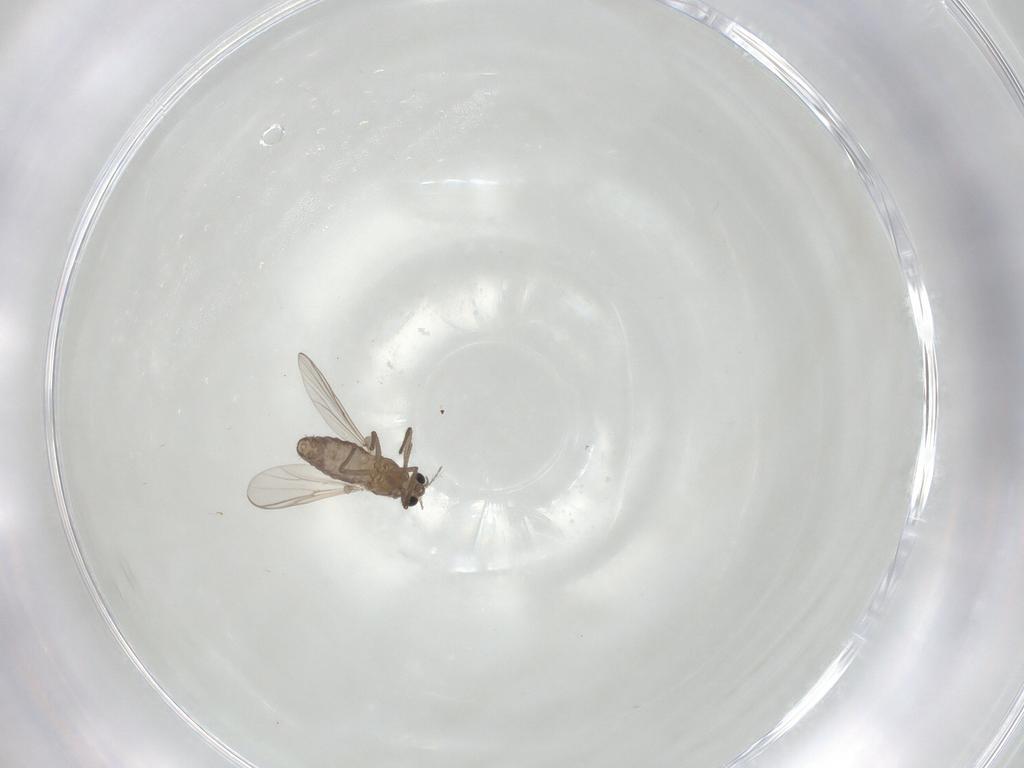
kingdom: Animalia
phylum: Arthropoda
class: Insecta
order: Diptera
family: Chironomidae
